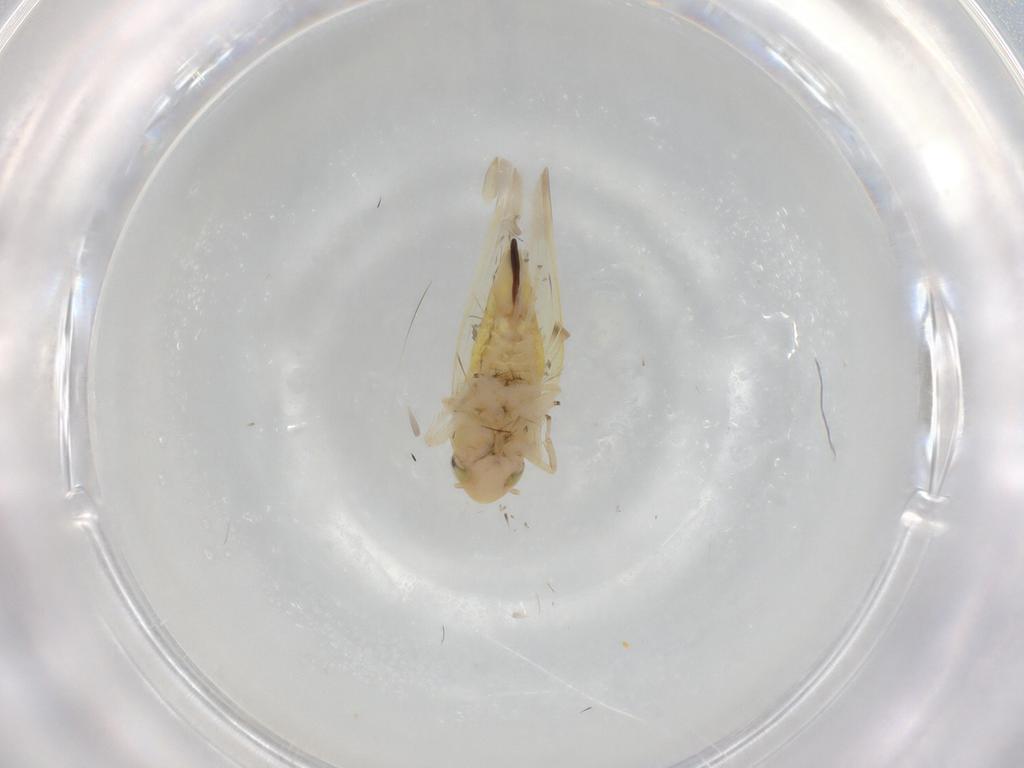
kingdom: Animalia
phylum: Arthropoda
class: Insecta
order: Hemiptera
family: Cicadellidae
